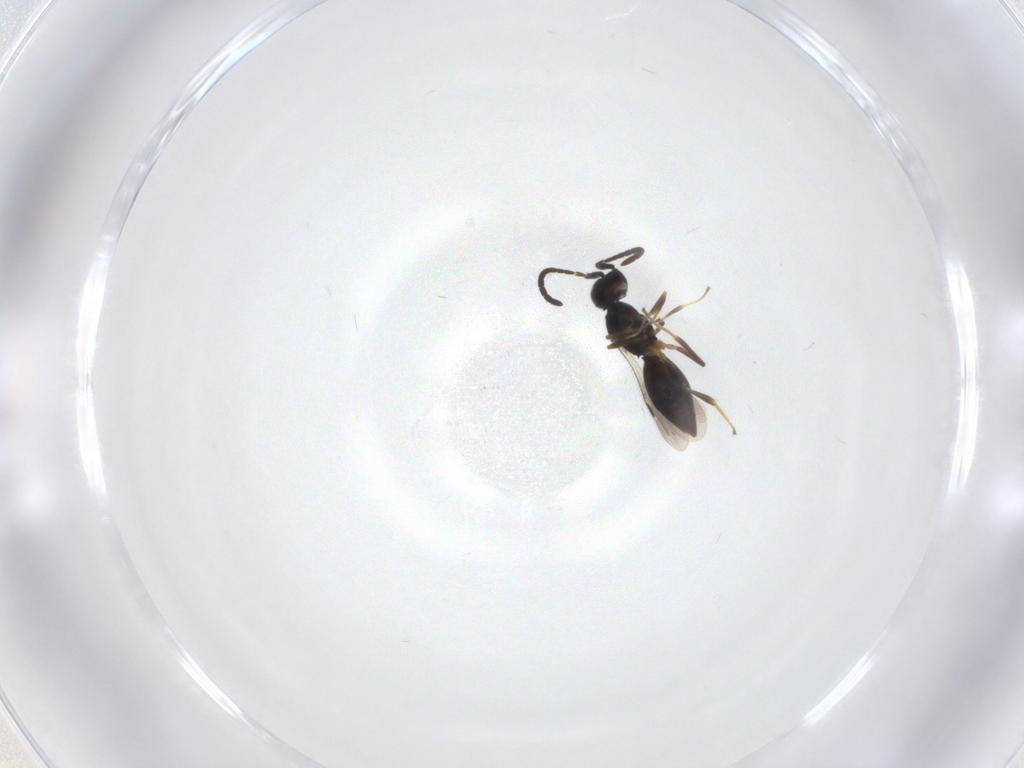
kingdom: Animalia
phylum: Arthropoda
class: Insecta
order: Hymenoptera
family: Megaspilidae
